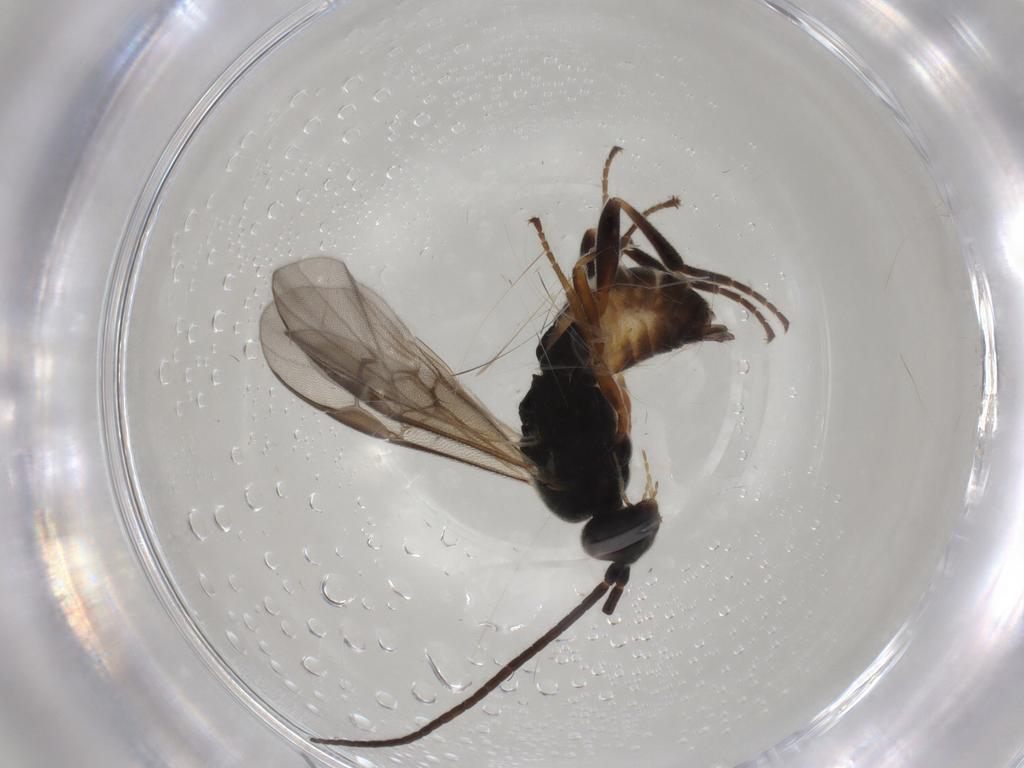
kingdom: Animalia
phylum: Arthropoda
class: Insecta
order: Hymenoptera
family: Braconidae
